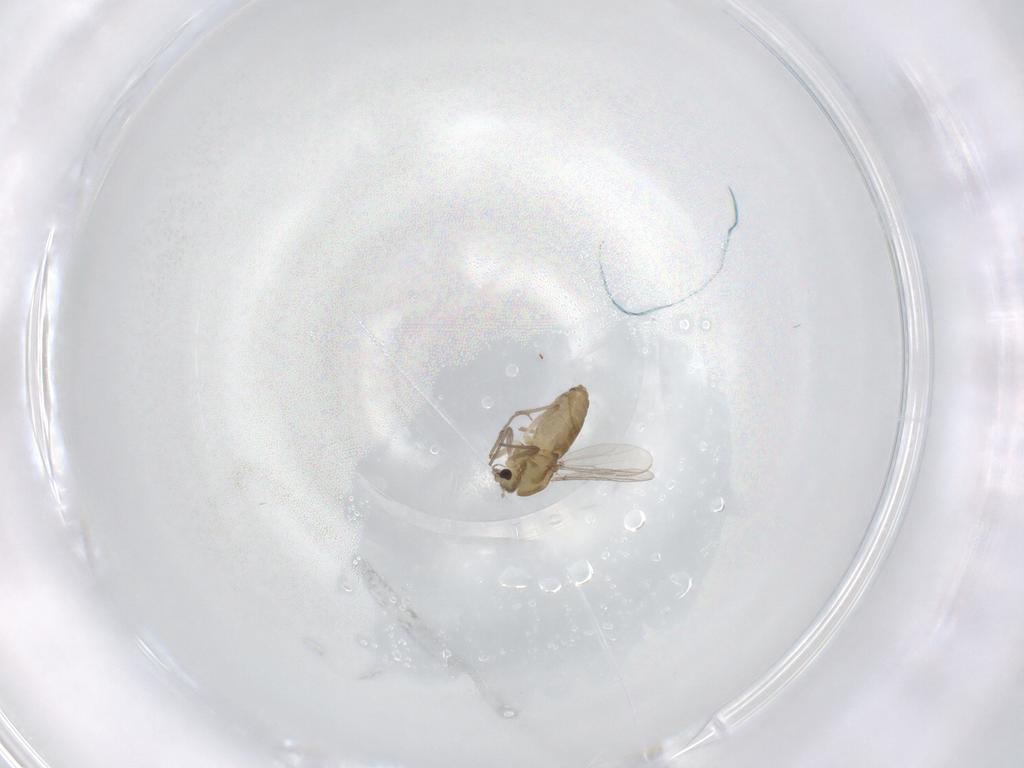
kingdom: Animalia
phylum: Arthropoda
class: Insecta
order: Diptera
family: Chironomidae
